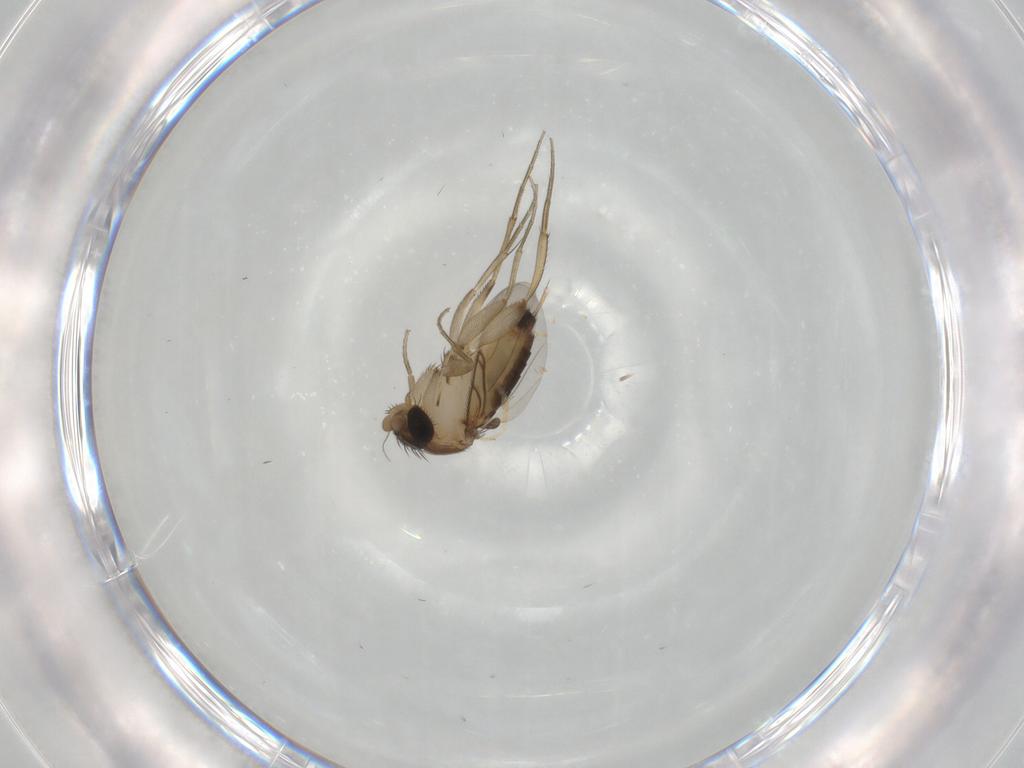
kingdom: Animalia
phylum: Arthropoda
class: Insecta
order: Diptera
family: Phoridae
